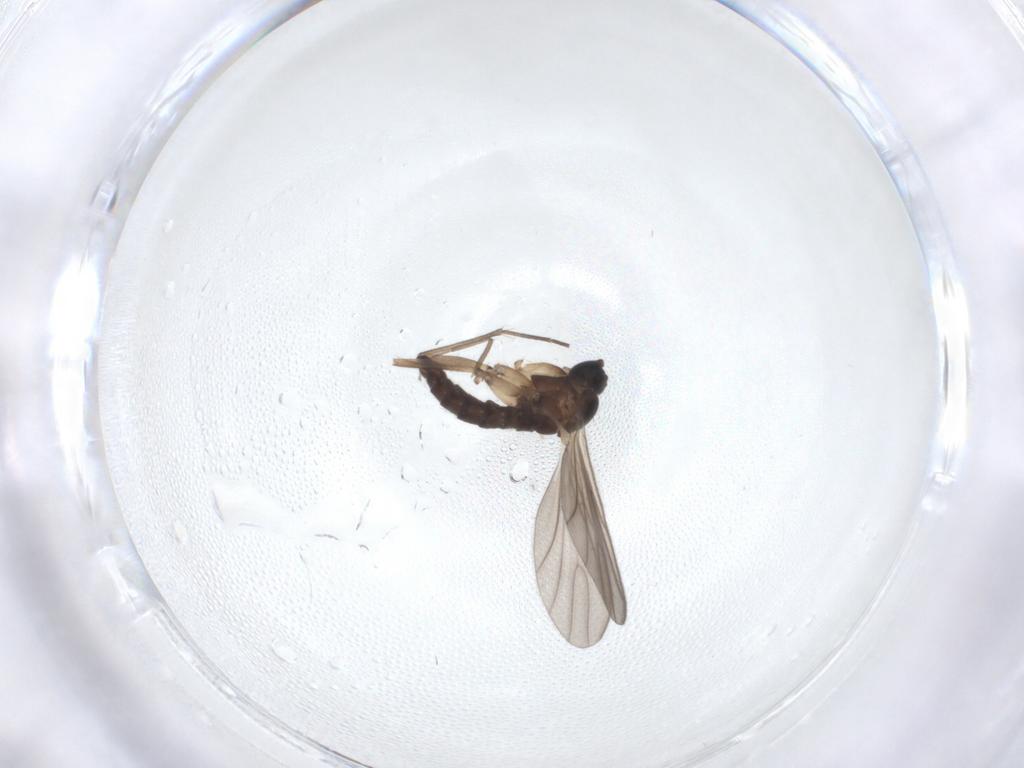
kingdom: Animalia
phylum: Arthropoda
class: Insecta
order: Diptera
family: Sciaridae
